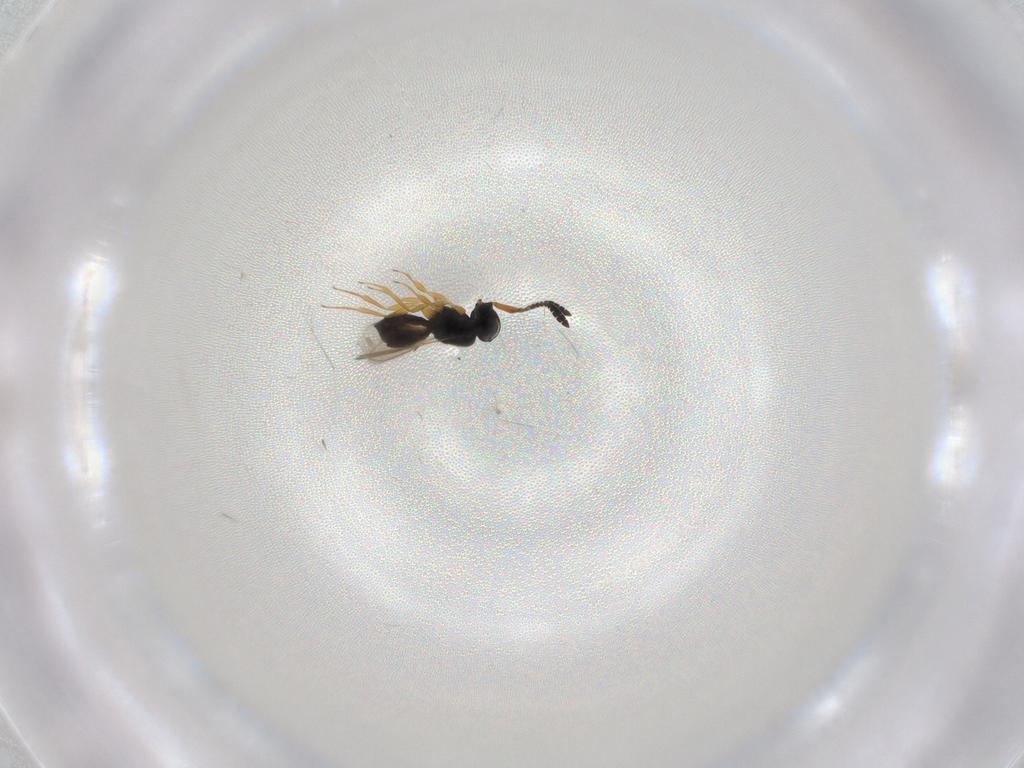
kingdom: Animalia
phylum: Arthropoda
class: Insecta
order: Hymenoptera
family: Scelionidae
